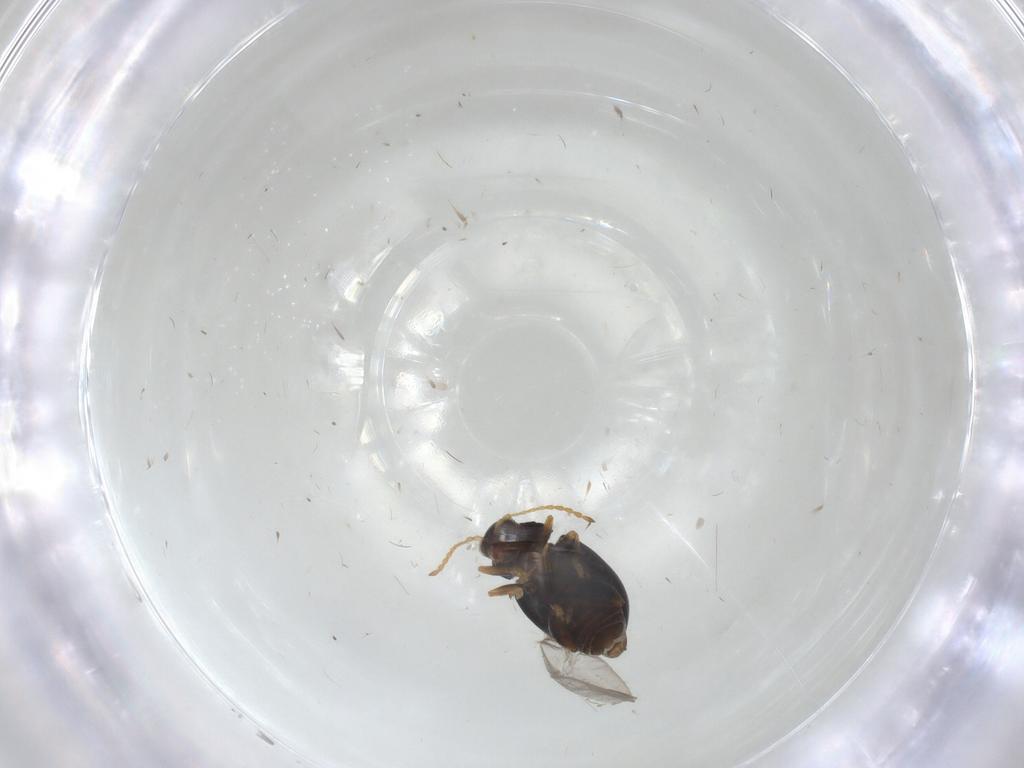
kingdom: Animalia
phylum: Arthropoda
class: Insecta
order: Coleoptera
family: Chrysomelidae
